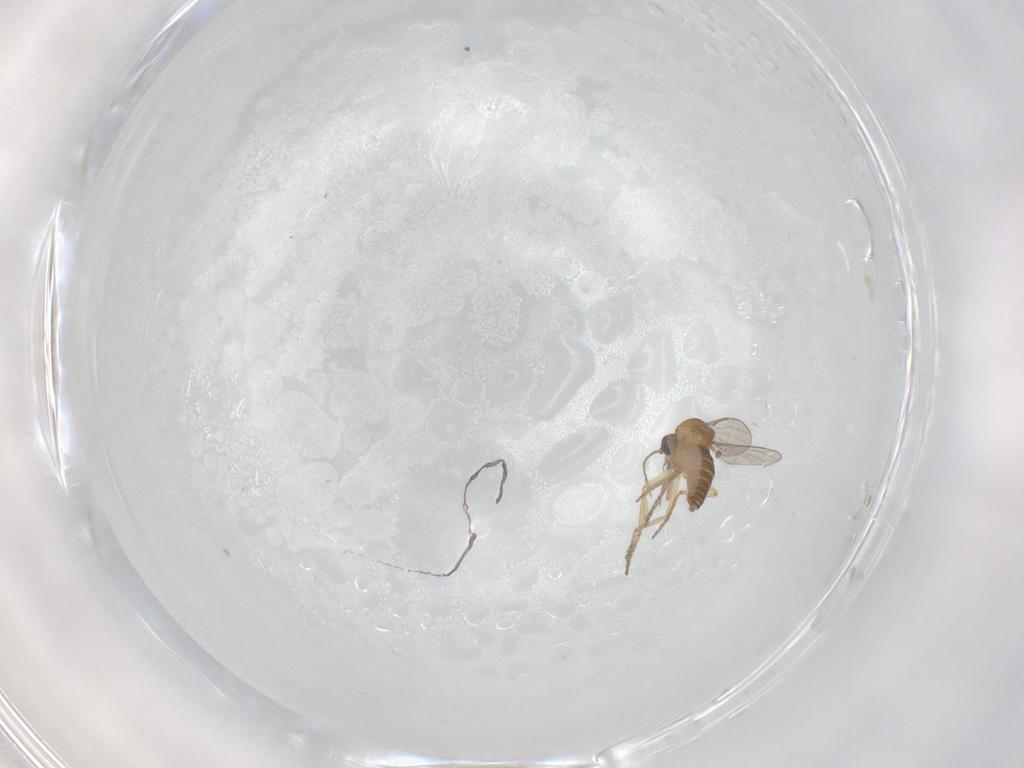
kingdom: Animalia
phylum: Arthropoda
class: Insecta
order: Diptera
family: Ceratopogonidae
